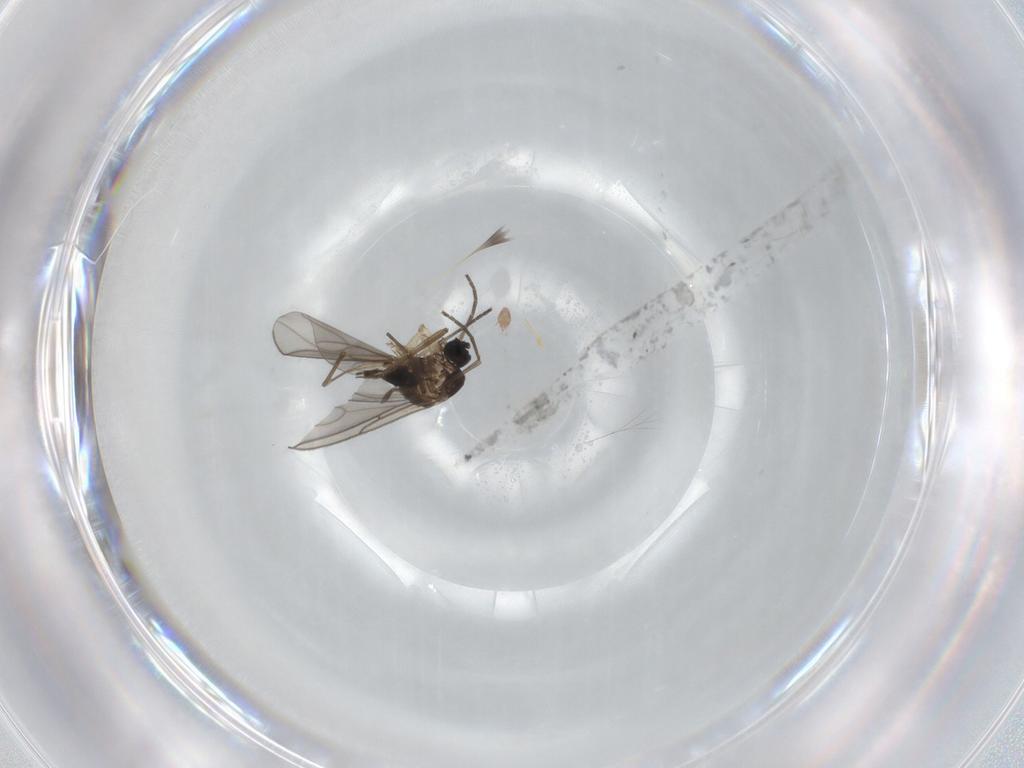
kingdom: Animalia
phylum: Arthropoda
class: Insecta
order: Diptera
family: Sciaridae
